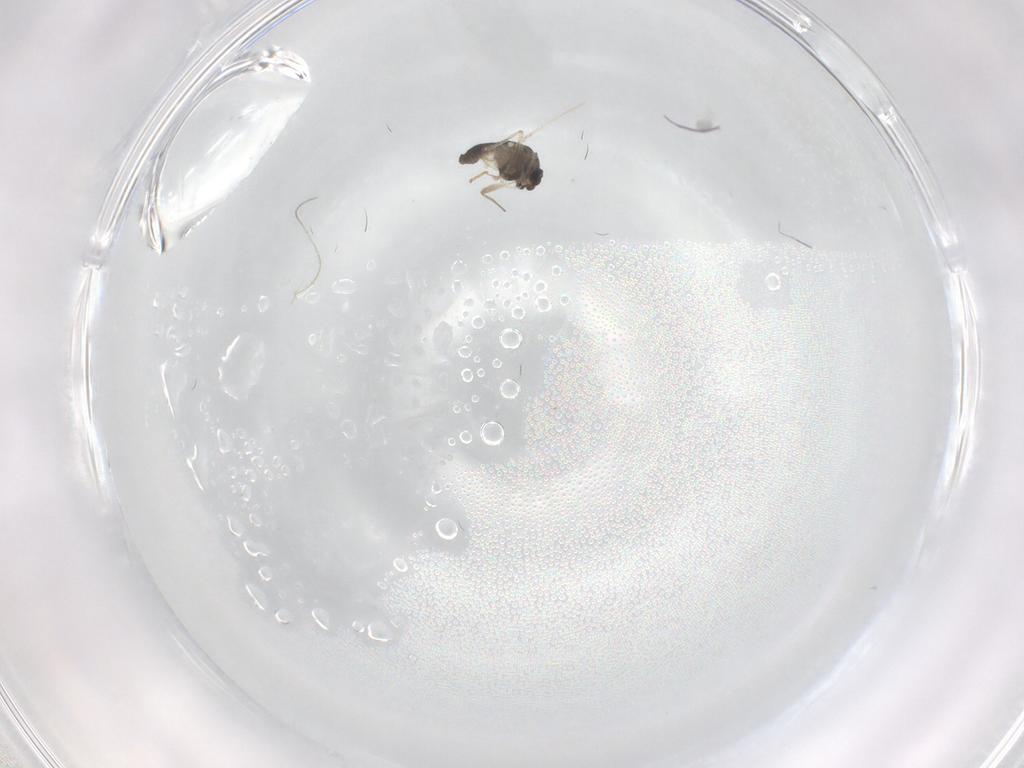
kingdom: Animalia
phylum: Arthropoda
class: Insecta
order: Diptera
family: Chironomidae
